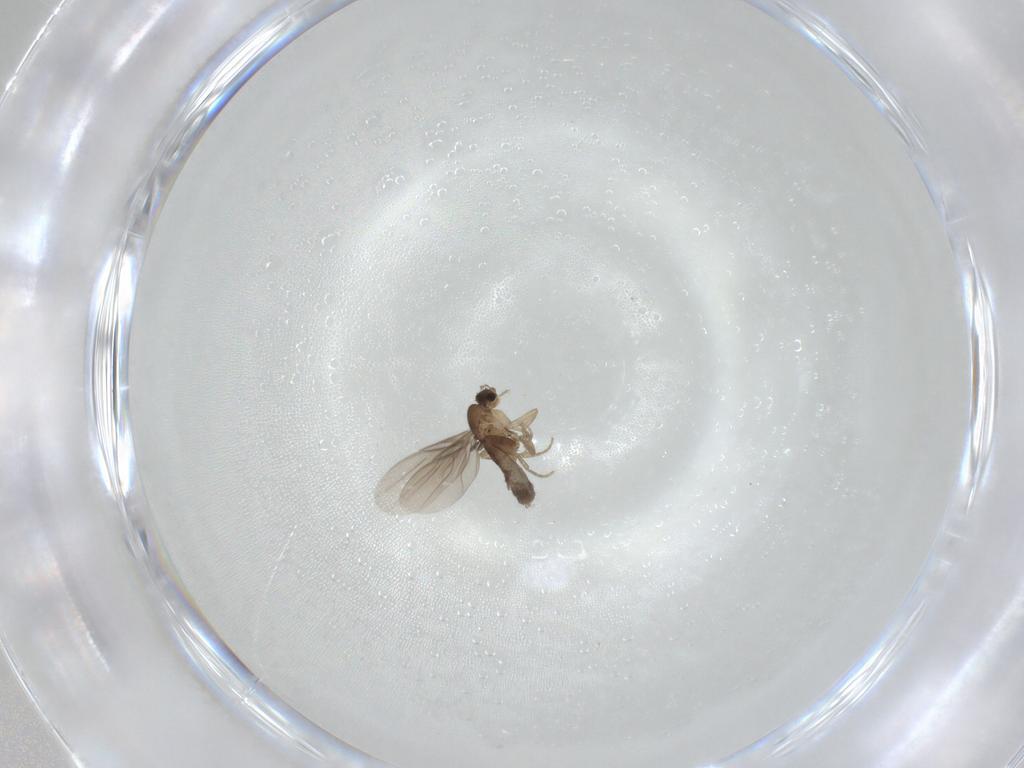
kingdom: Animalia
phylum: Arthropoda
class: Insecta
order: Diptera
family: Phoridae
